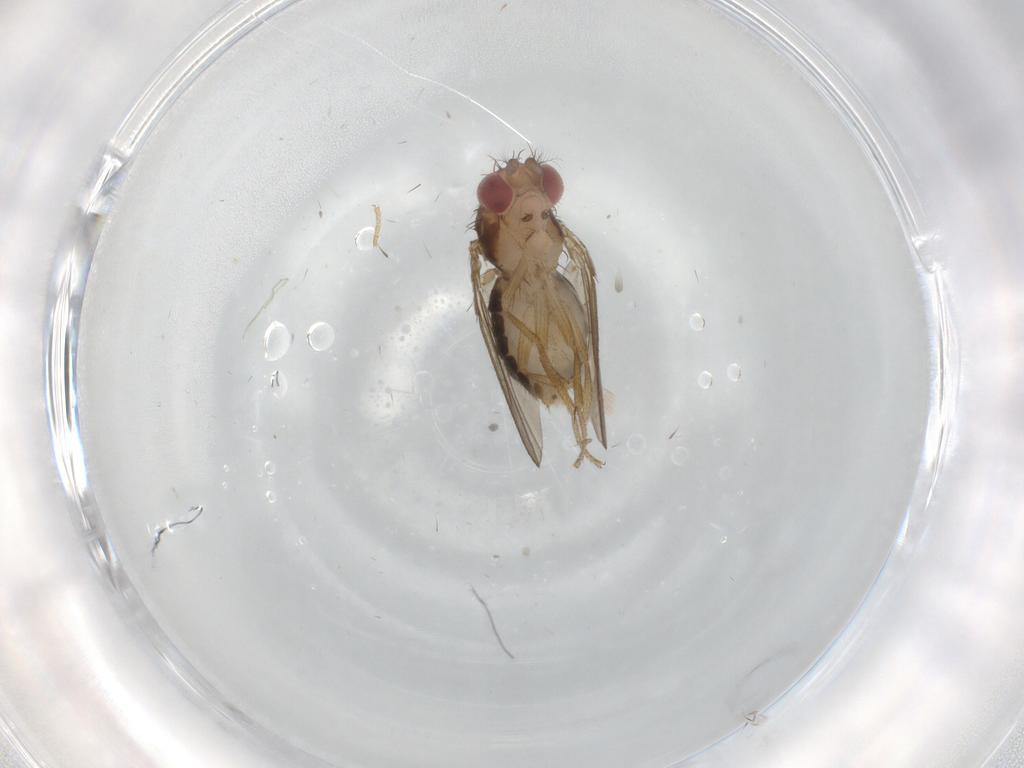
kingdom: Animalia
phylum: Arthropoda
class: Insecta
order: Diptera
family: Drosophilidae
